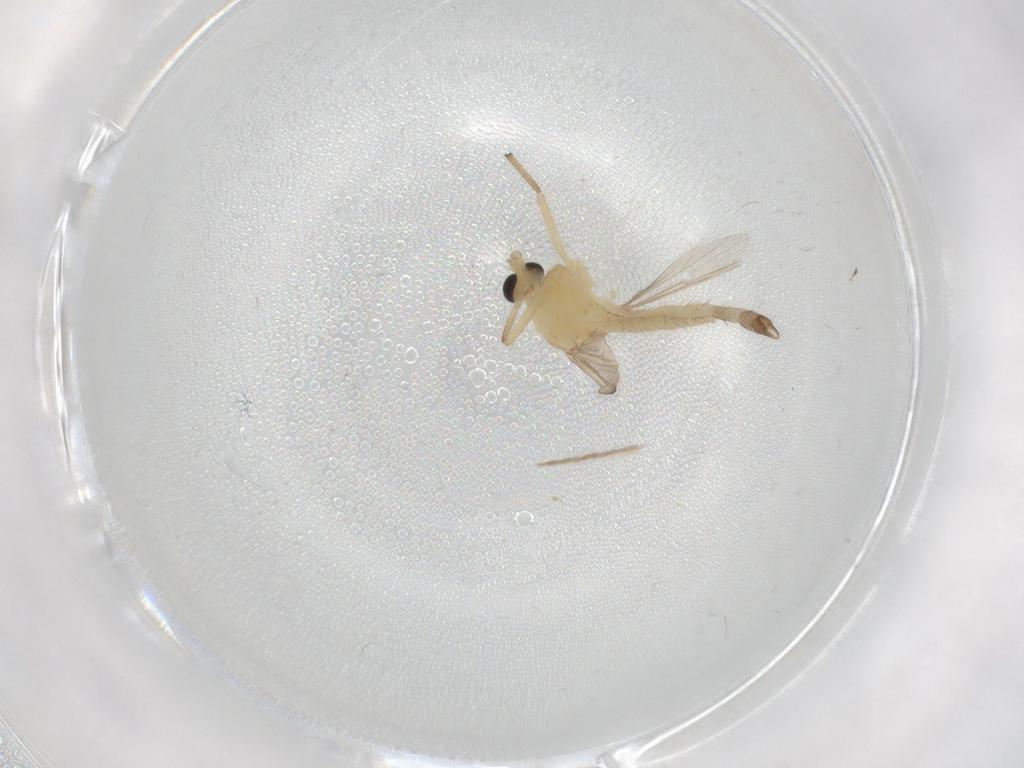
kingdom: Animalia
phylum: Arthropoda
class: Insecta
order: Diptera
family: Chironomidae
